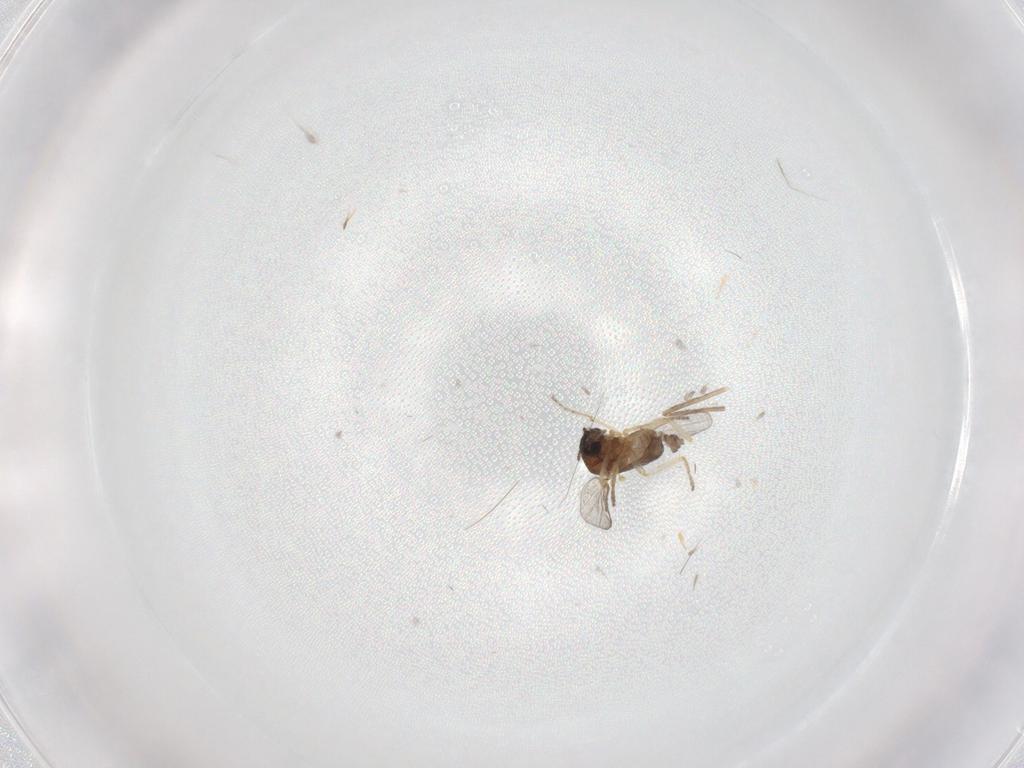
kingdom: Animalia
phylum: Arthropoda
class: Insecta
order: Diptera
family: Ceratopogonidae
